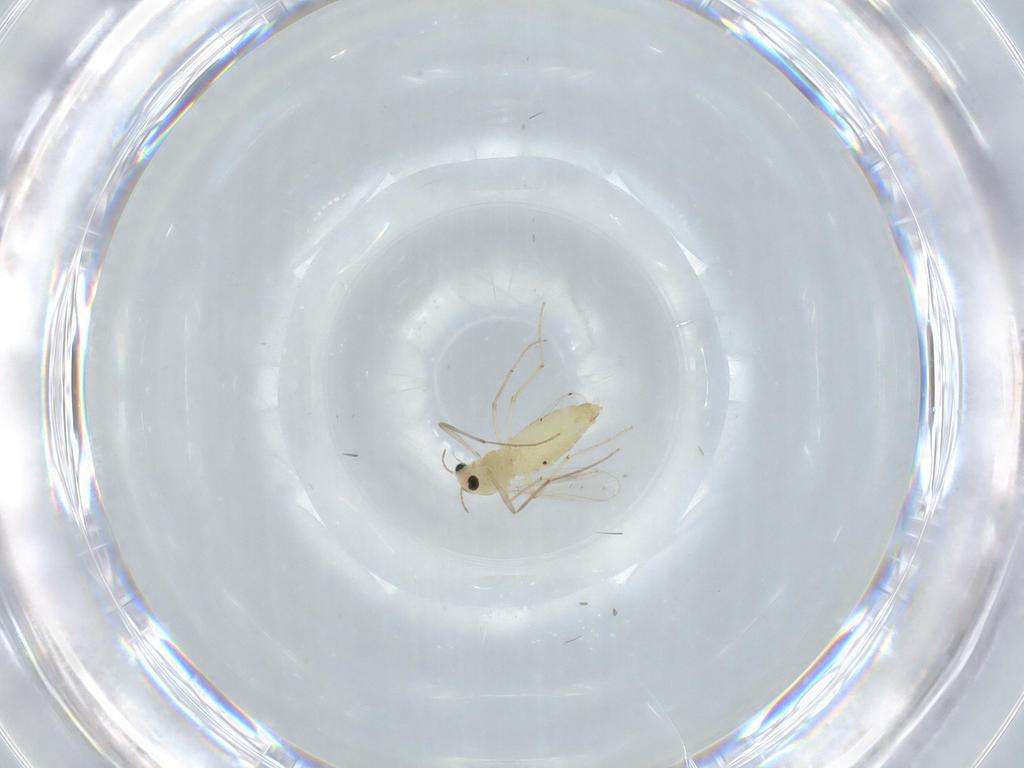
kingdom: Animalia
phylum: Arthropoda
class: Insecta
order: Diptera
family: Chironomidae
